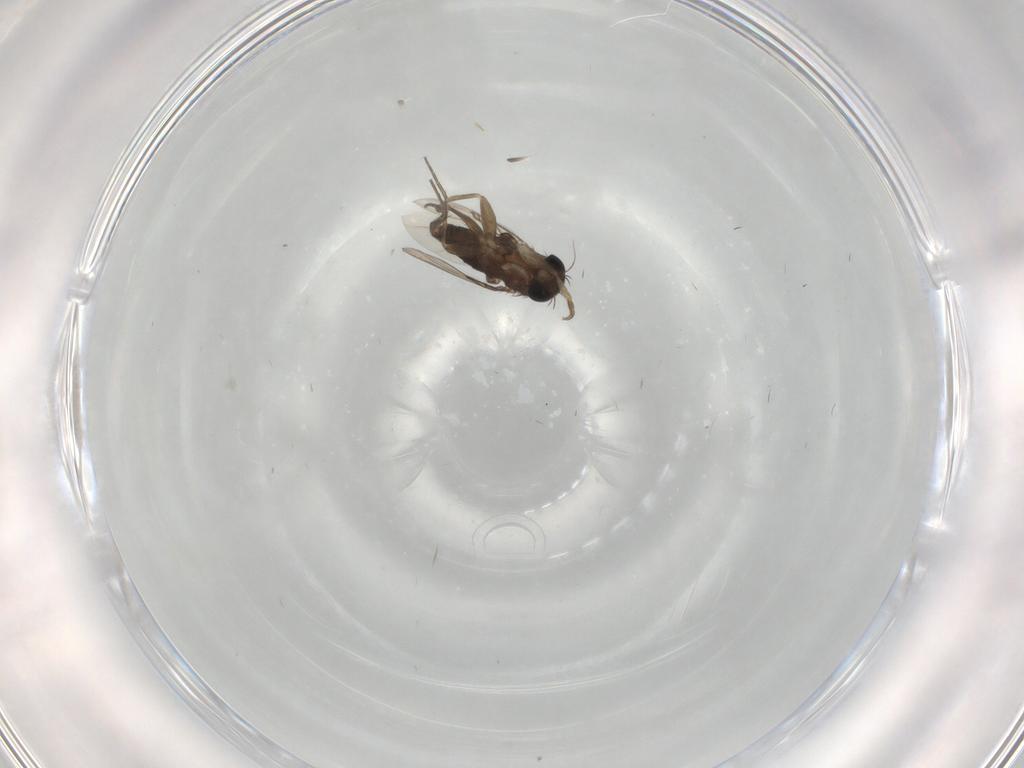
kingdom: Animalia
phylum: Arthropoda
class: Insecta
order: Diptera
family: Phoridae
